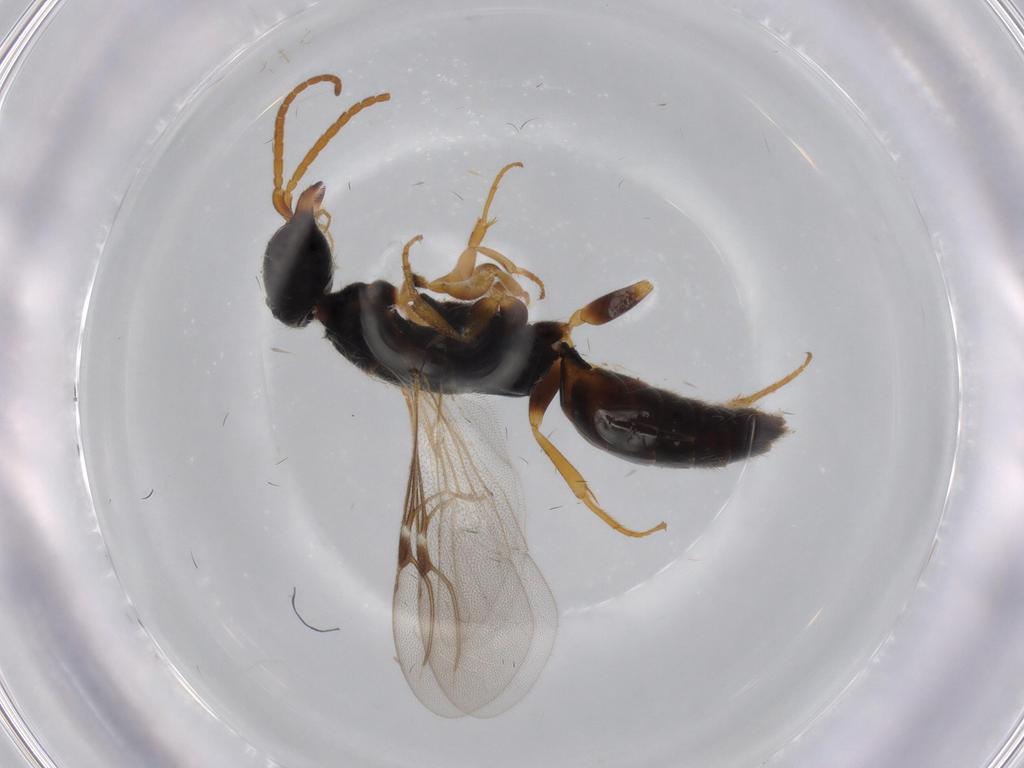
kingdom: Animalia
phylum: Arthropoda
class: Insecta
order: Hymenoptera
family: Bethylidae
